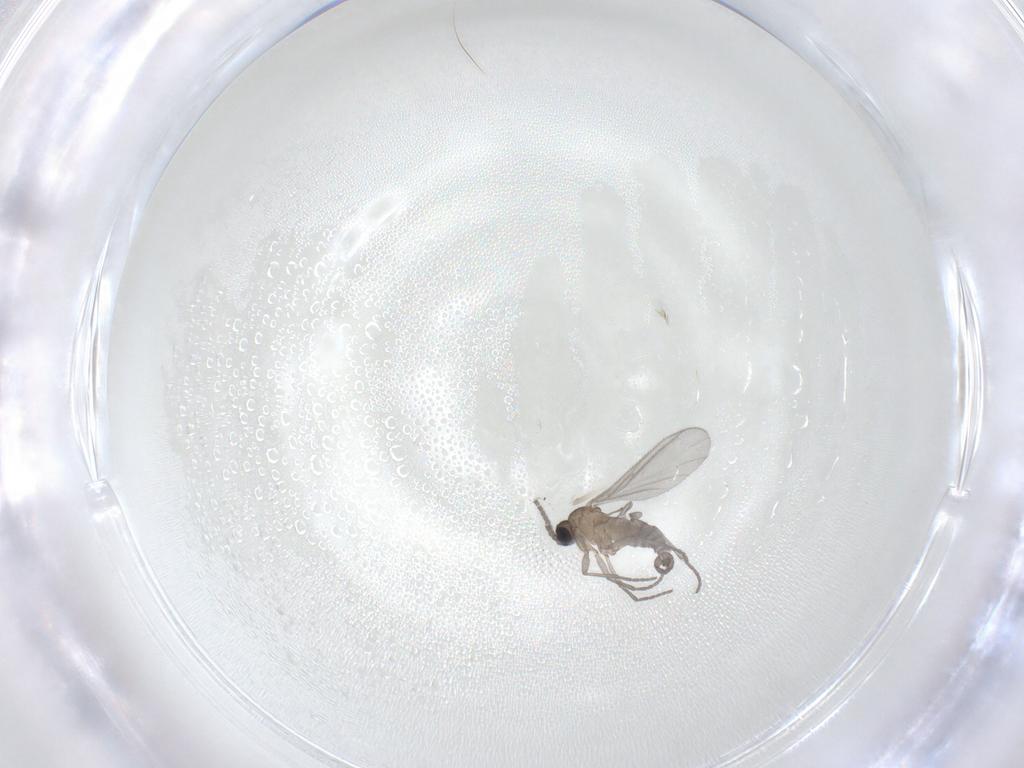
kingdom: Animalia
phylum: Arthropoda
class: Insecta
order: Diptera
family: Sciaridae
